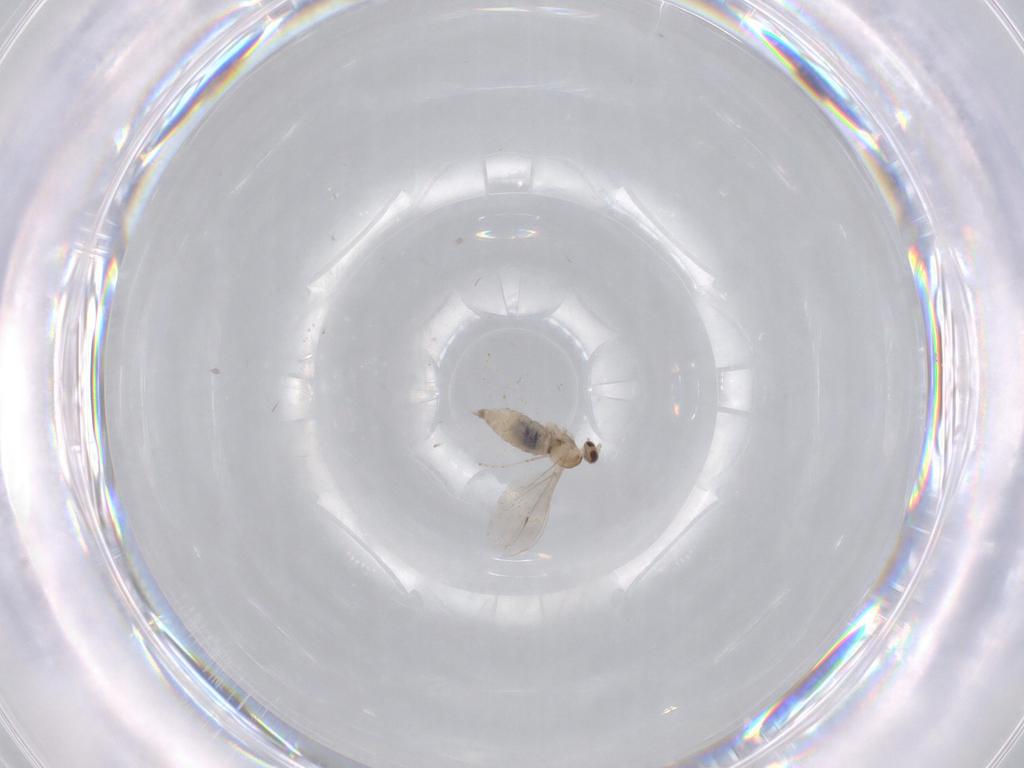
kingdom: Animalia
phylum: Arthropoda
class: Insecta
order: Diptera
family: Cecidomyiidae
